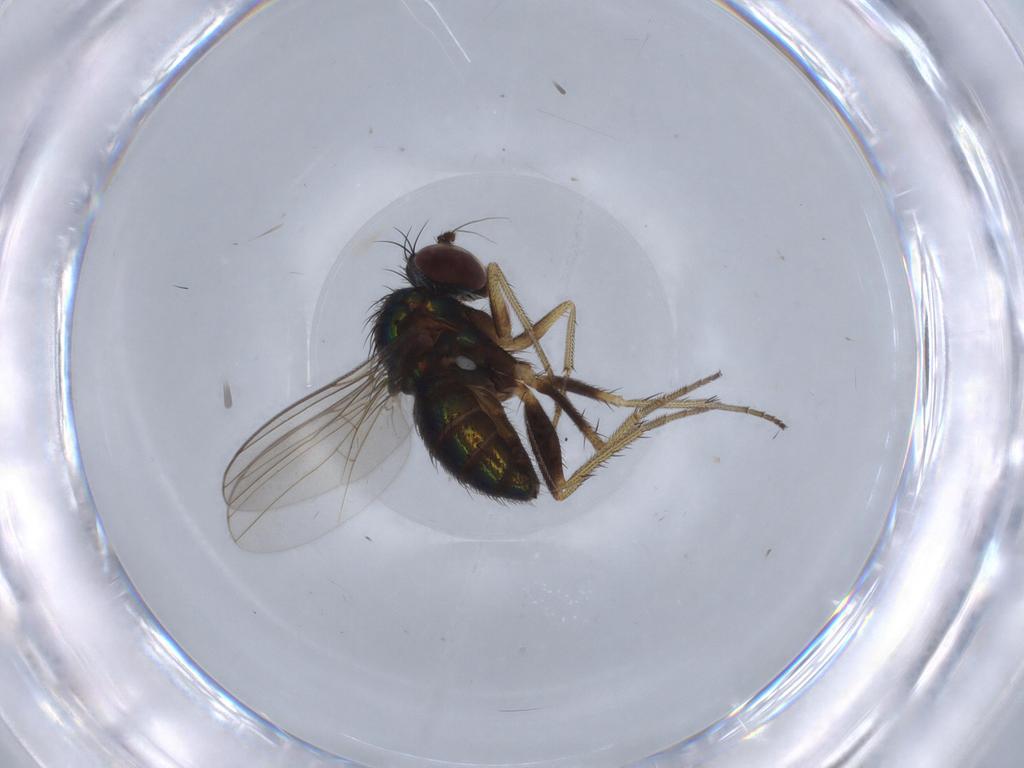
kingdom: Animalia
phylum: Arthropoda
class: Insecta
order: Diptera
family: Dolichopodidae
